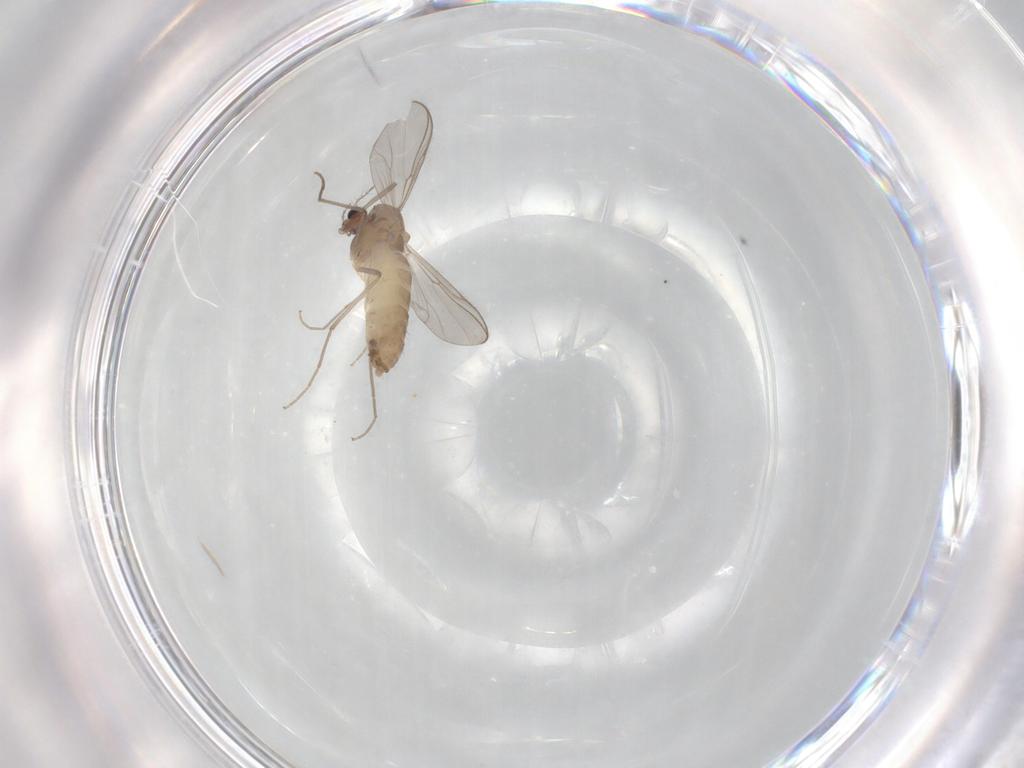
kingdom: Animalia
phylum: Arthropoda
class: Insecta
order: Diptera
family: Chironomidae
